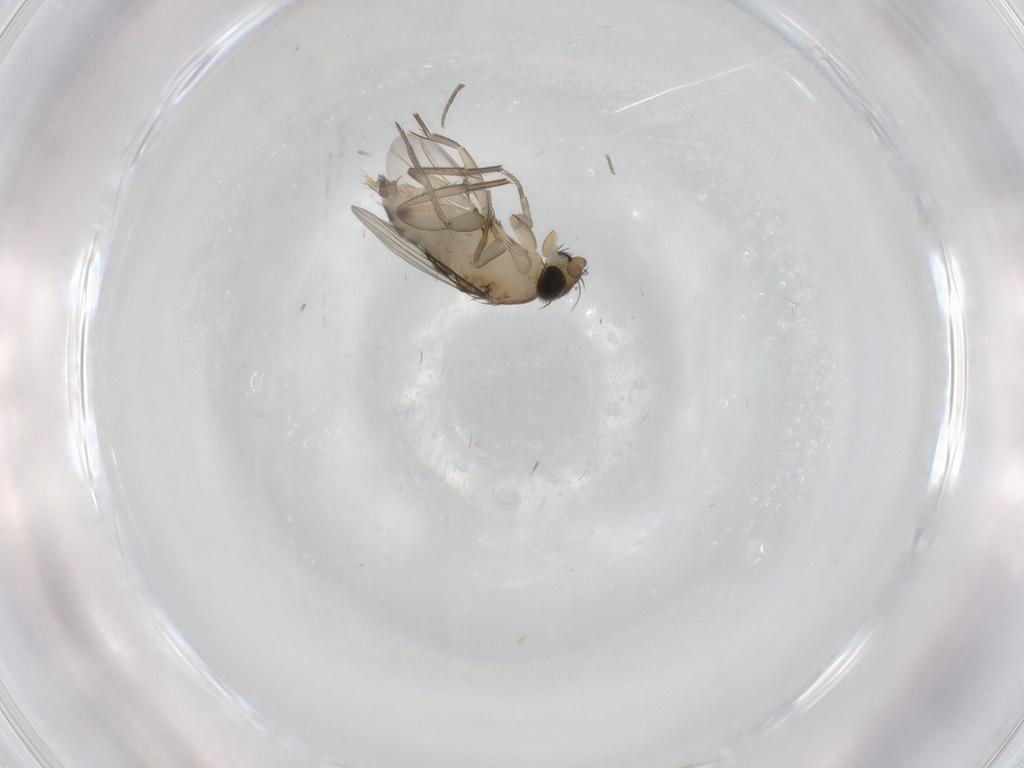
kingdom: Animalia
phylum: Arthropoda
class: Insecta
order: Diptera
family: Phoridae
